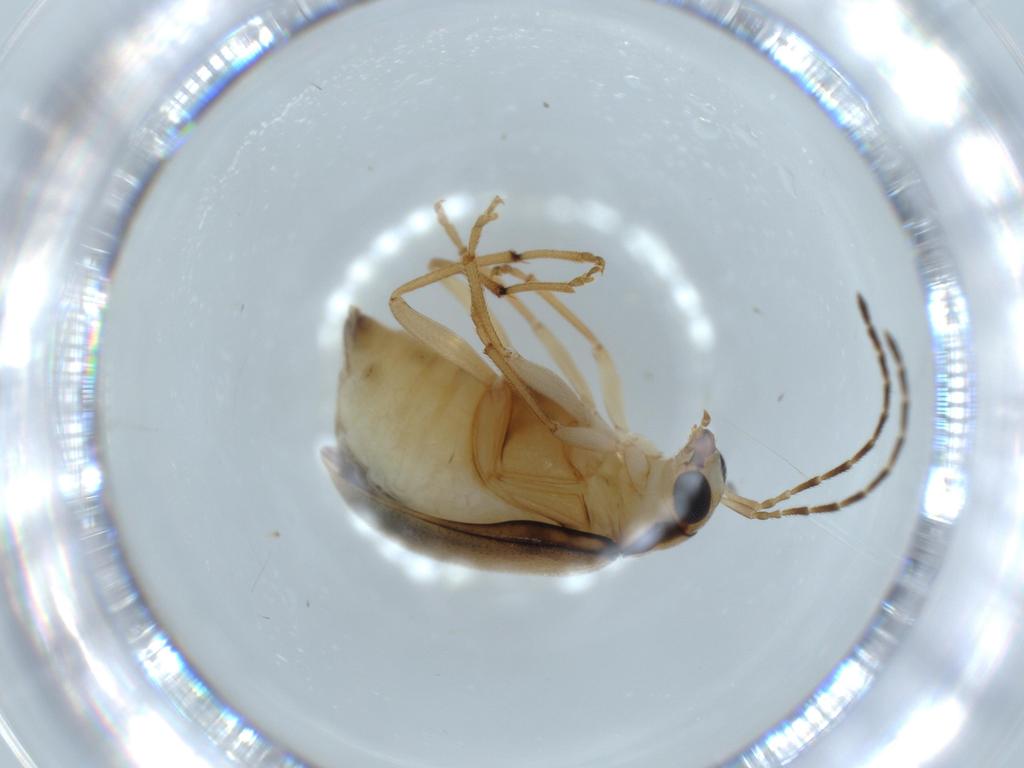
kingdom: Animalia
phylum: Arthropoda
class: Insecta
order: Coleoptera
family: Chrysomelidae
